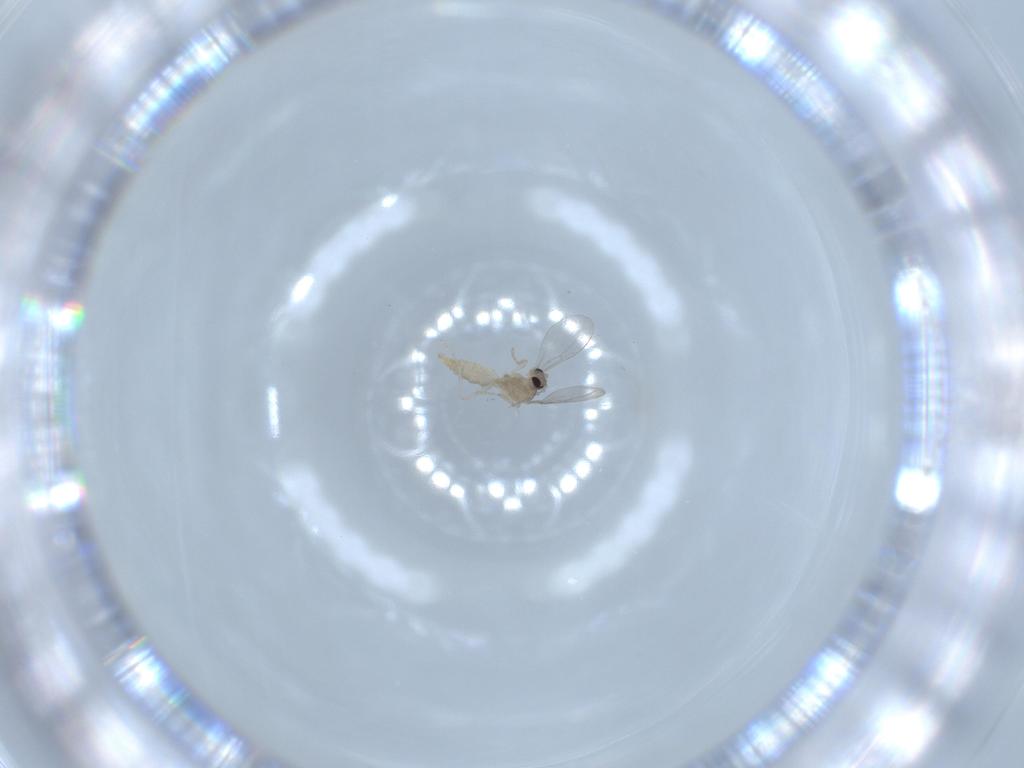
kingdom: Animalia
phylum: Arthropoda
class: Insecta
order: Diptera
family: Cecidomyiidae
